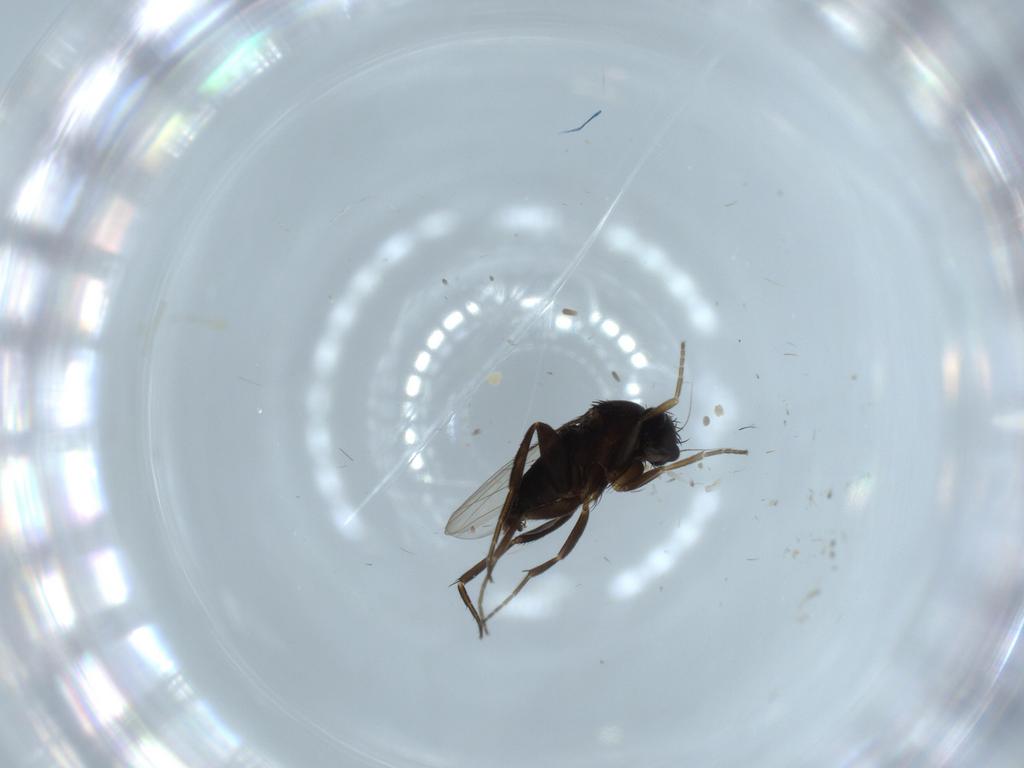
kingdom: Animalia
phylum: Arthropoda
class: Insecta
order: Diptera
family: Phoridae
